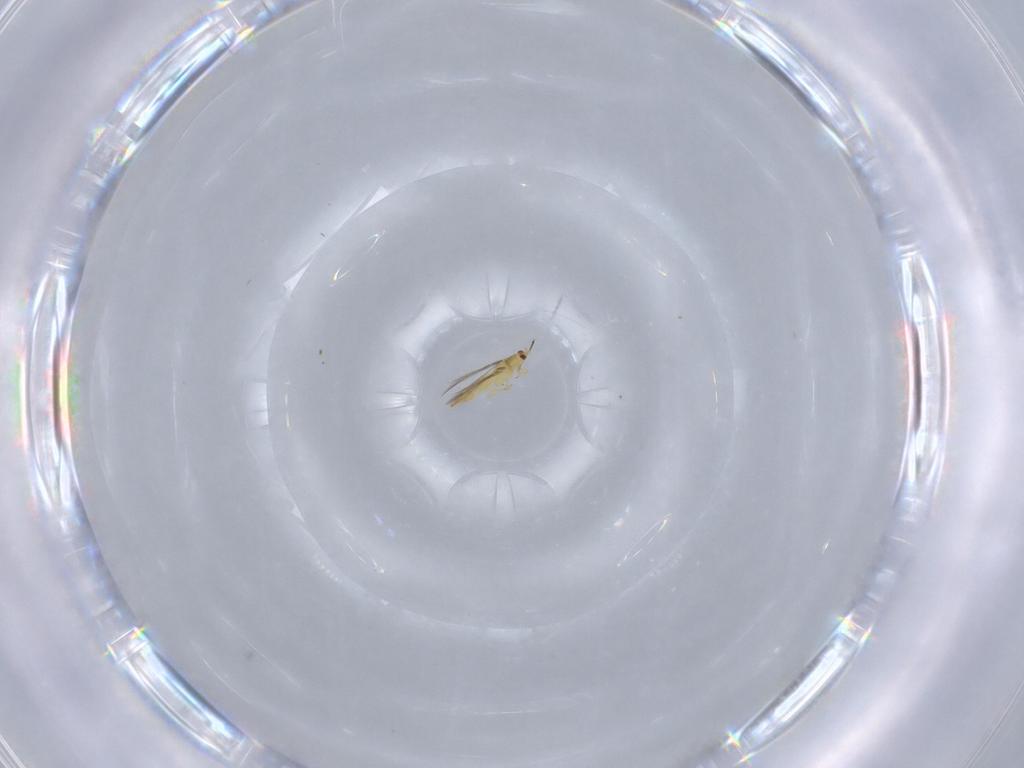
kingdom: Animalia
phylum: Arthropoda
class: Insecta
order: Thysanoptera
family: Thripidae
